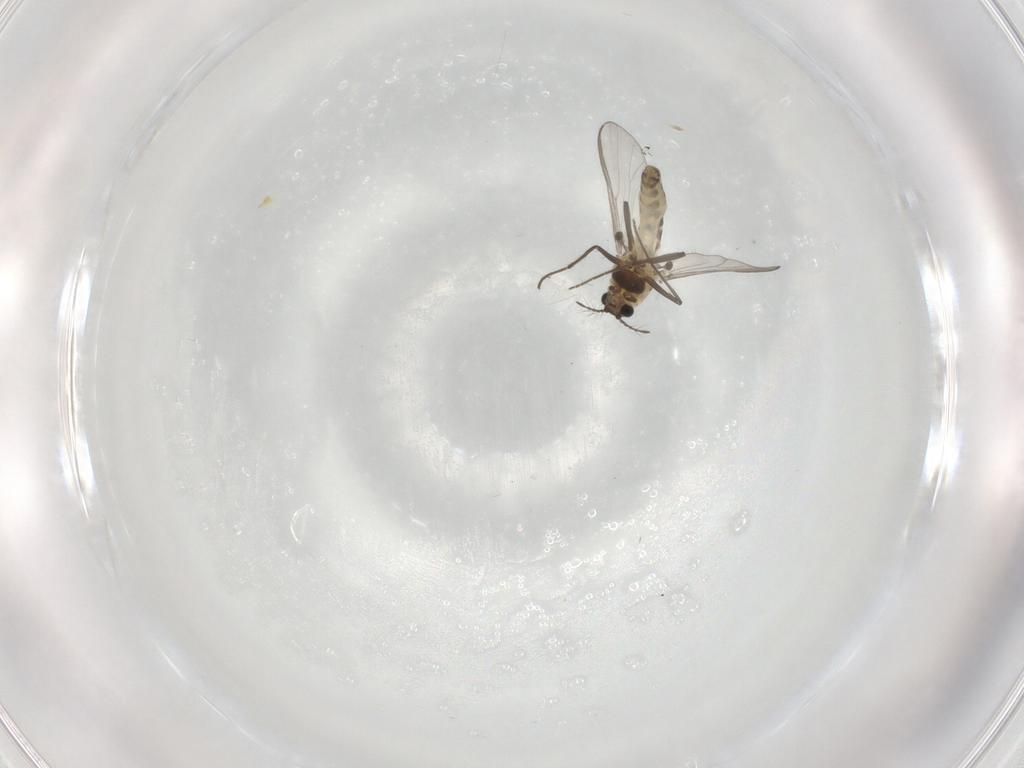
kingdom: Animalia
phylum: Arthropoda
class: Insecta
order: Diptera
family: Chironomidae
